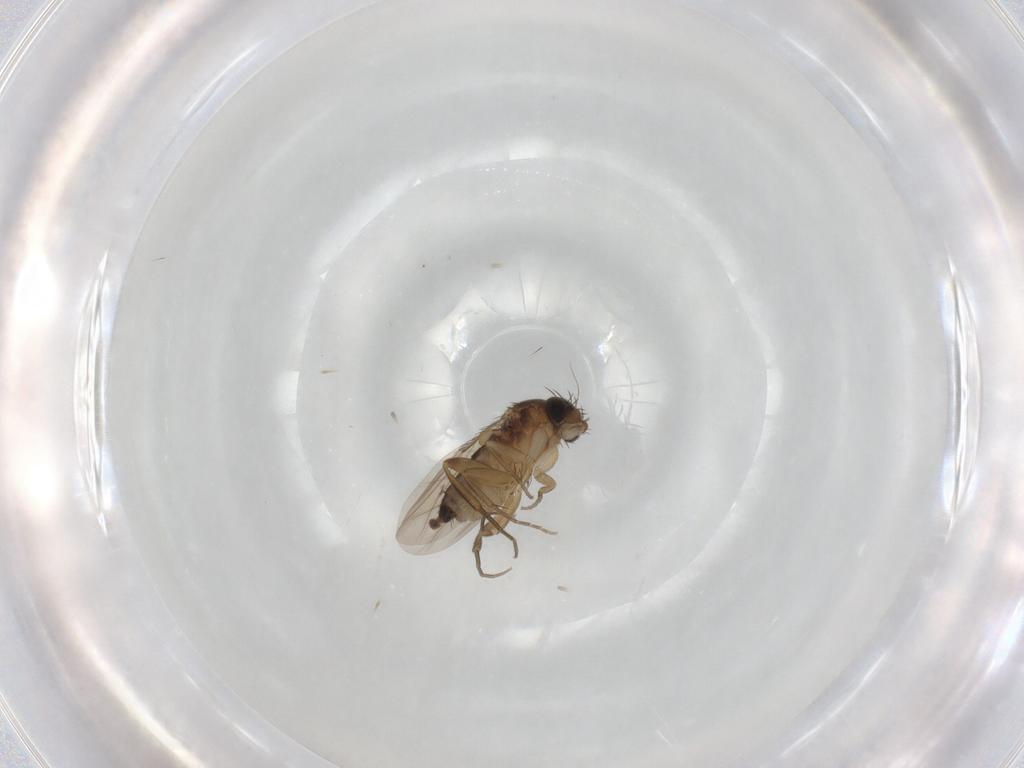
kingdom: Animalia
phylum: Arthropoda
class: Insecta
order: Diptera
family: Phoridae
